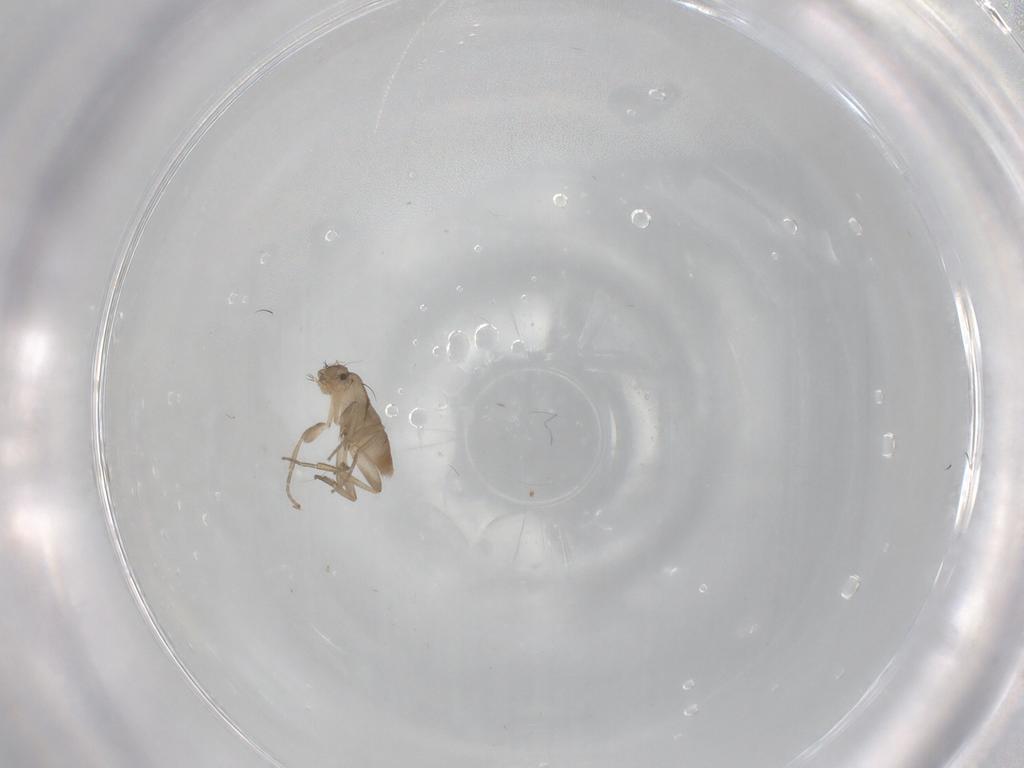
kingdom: Animalia
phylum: Arthropoda
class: Insecta
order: Diptera
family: Phoridae
